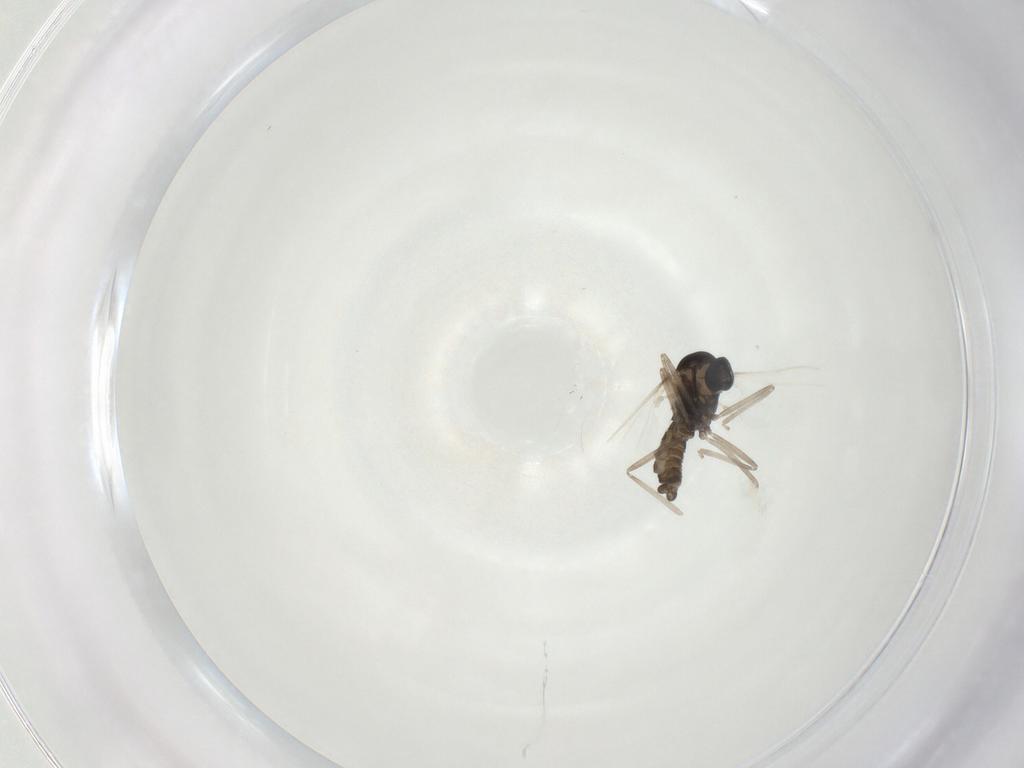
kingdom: Animalia
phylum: Arthropoda
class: Insecta
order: Diptera
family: Cecidomyiidae
